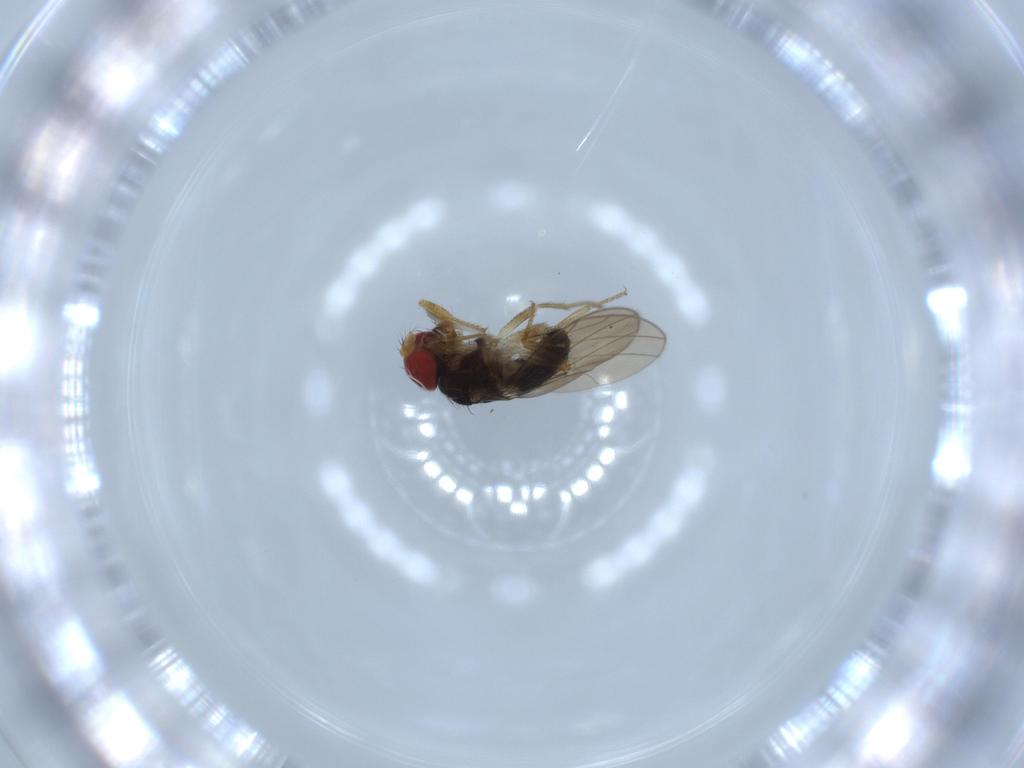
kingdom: Animalia
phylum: Arthropoda
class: Insecta
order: Diptera
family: Drosophilidae
